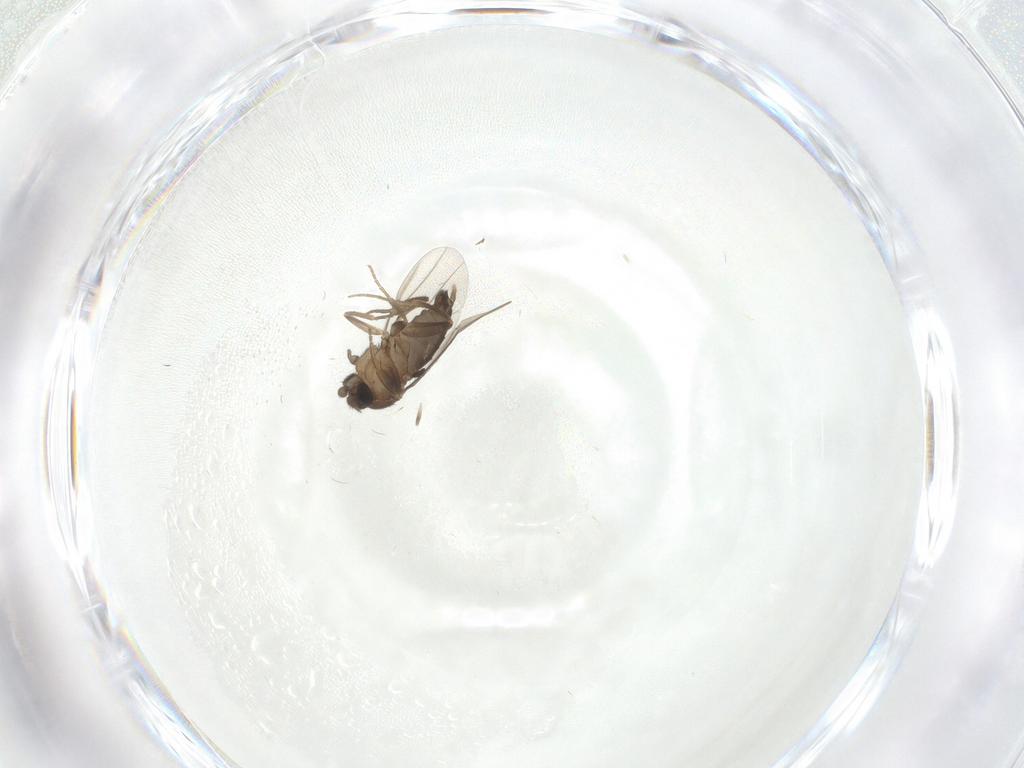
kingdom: Animalia
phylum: Arthropoda
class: Insecta
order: Diptera
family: Phoridae
